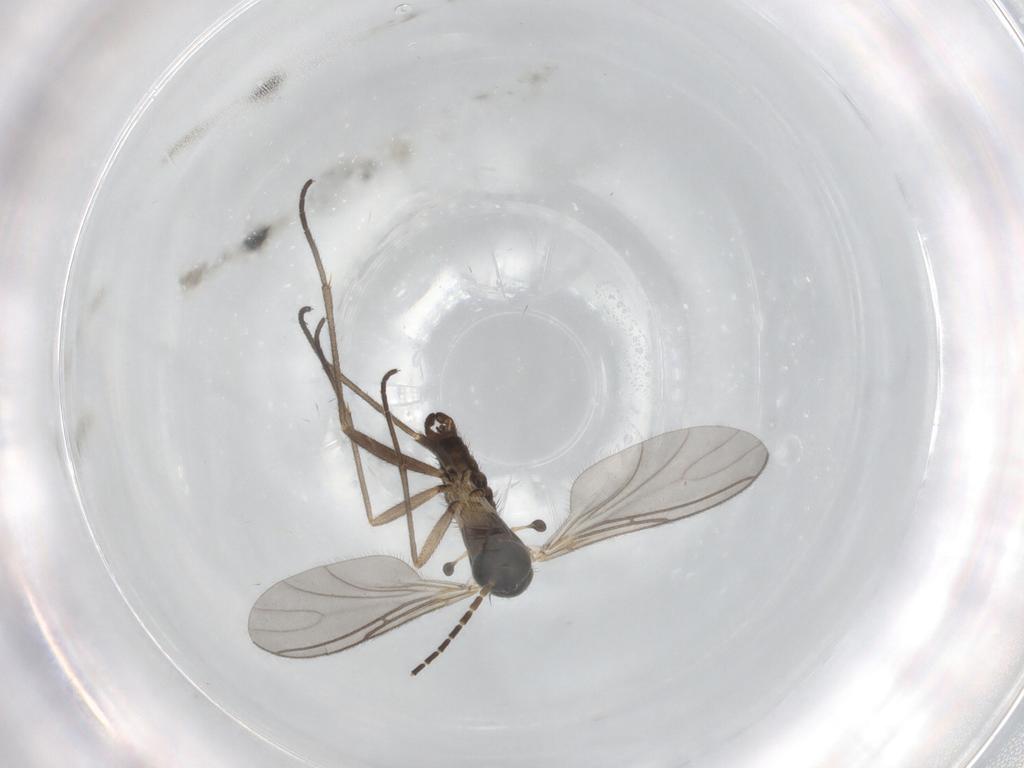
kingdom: Animalia
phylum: Arthropoda
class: Insecta
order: Diptera
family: Sciaridae
